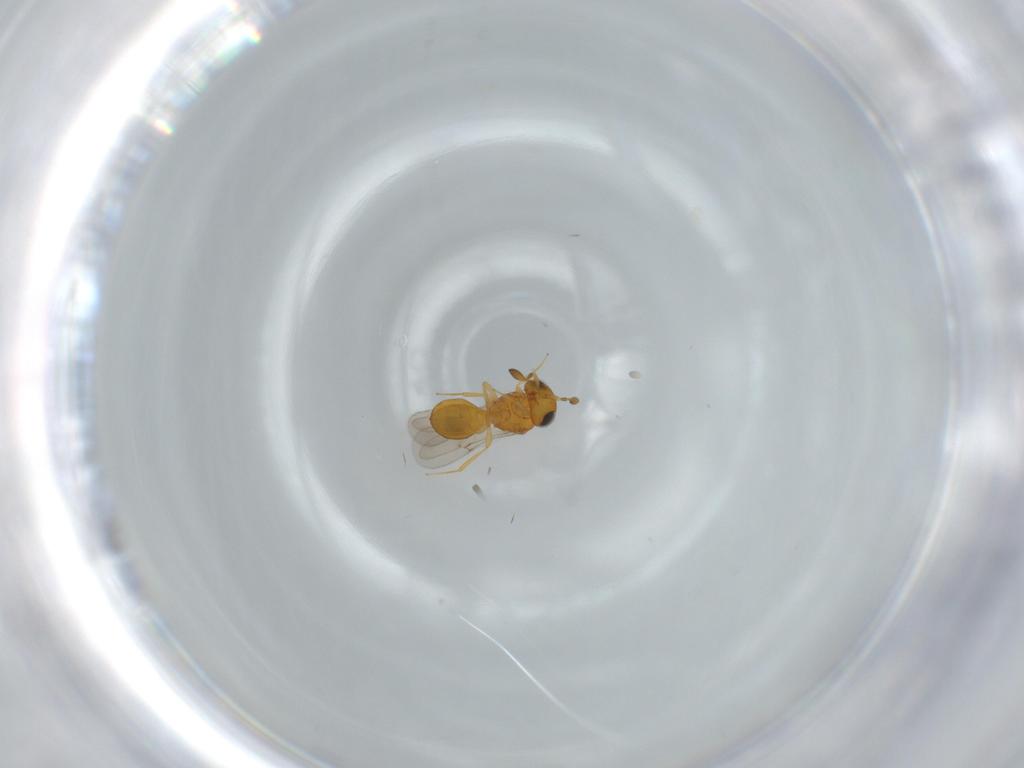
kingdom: Animalia
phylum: Arthropoda
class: Insecta
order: Hymenoptera
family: Scelionidae
